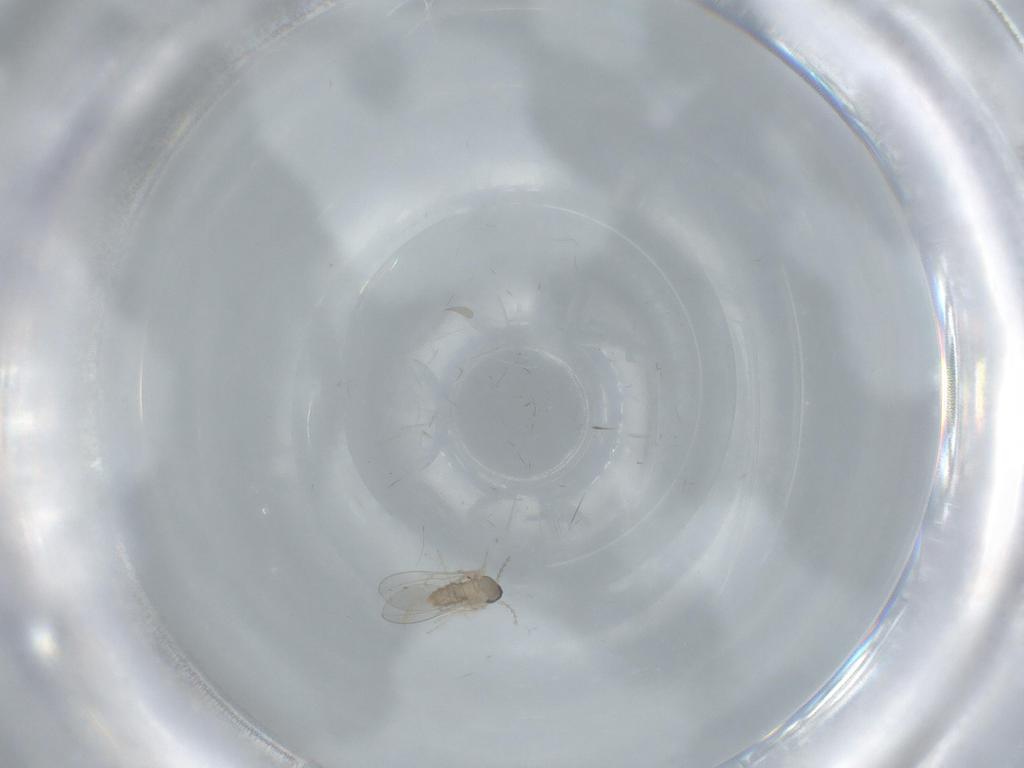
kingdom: Animalia
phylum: Arthropoda
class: Insecta
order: Diptera
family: Sciaridae
